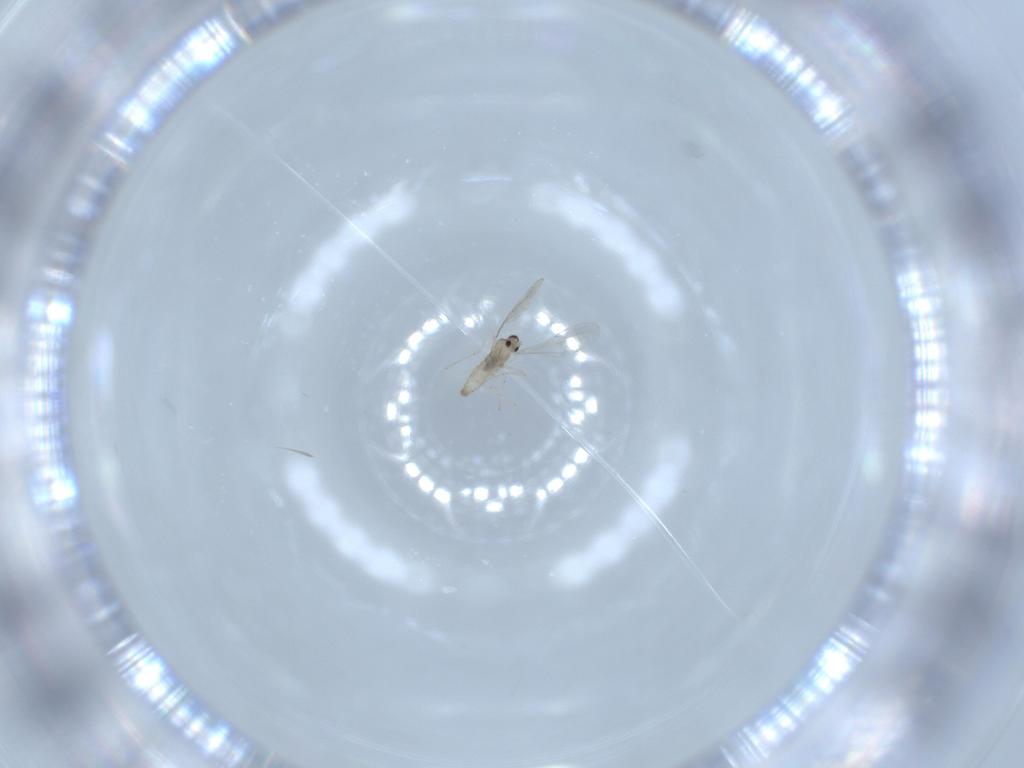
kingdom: Animalia
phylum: Arthropoda
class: Insecta
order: Diptera
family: Cecidomyiidae
